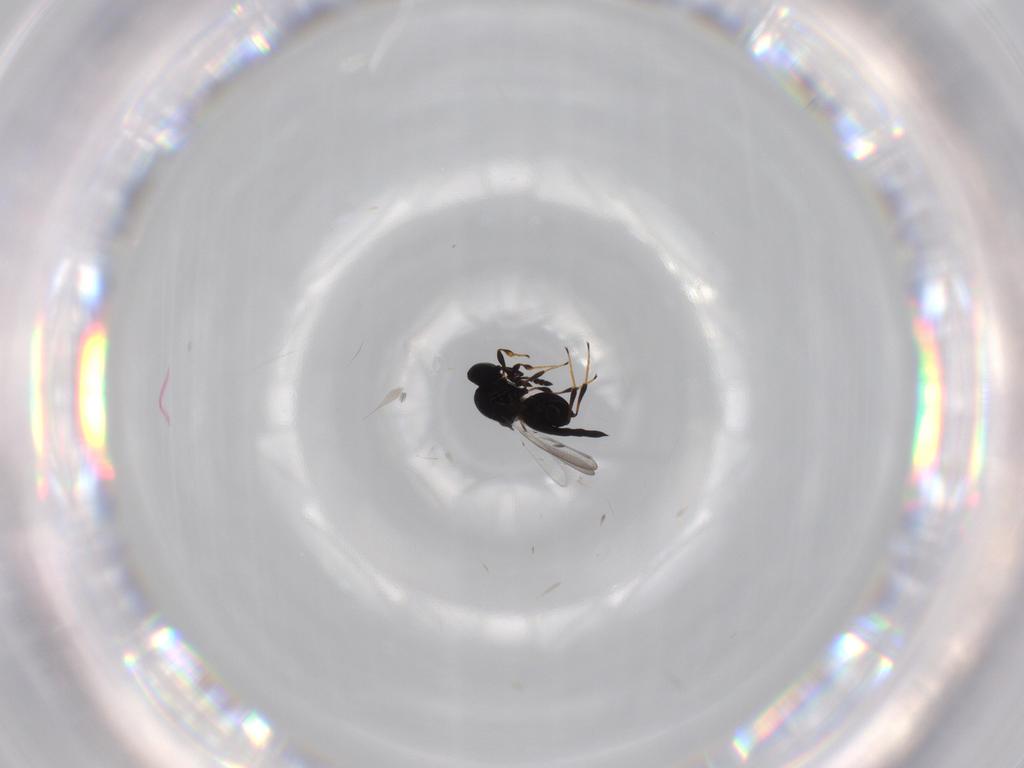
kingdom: Animalia
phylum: Arthropoda
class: Insecta
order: Hymenoptera
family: Platygastridae
